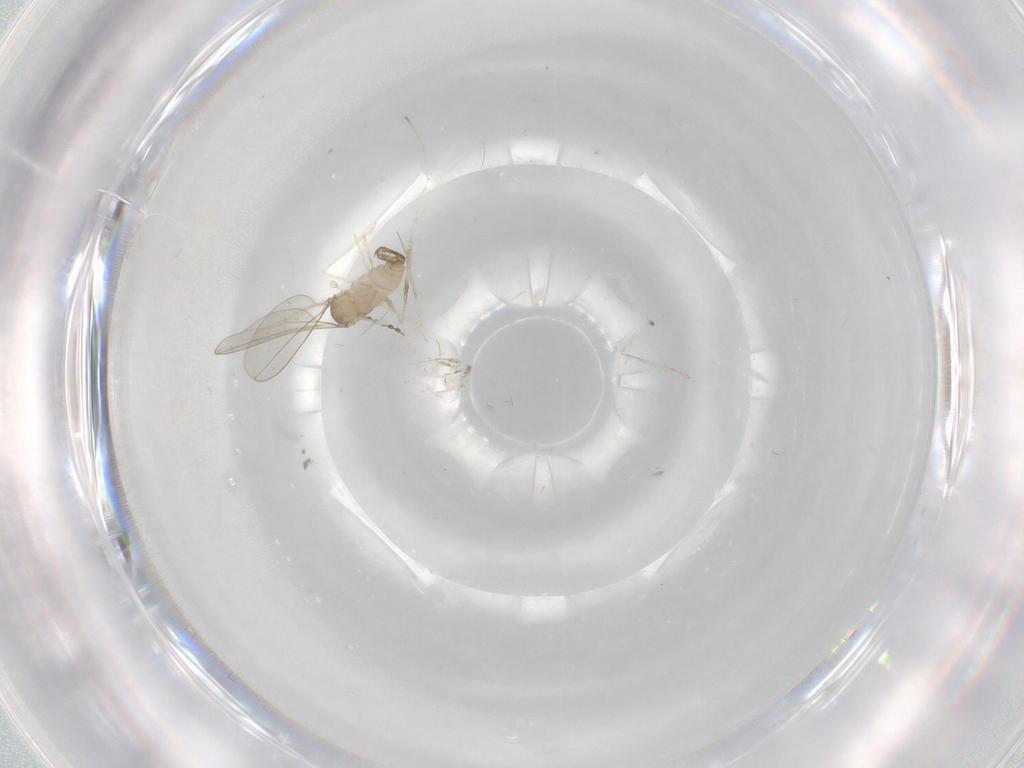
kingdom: Animalia
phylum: Arthropoda
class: Insecta
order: Diptera
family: Cecidomyiidae
